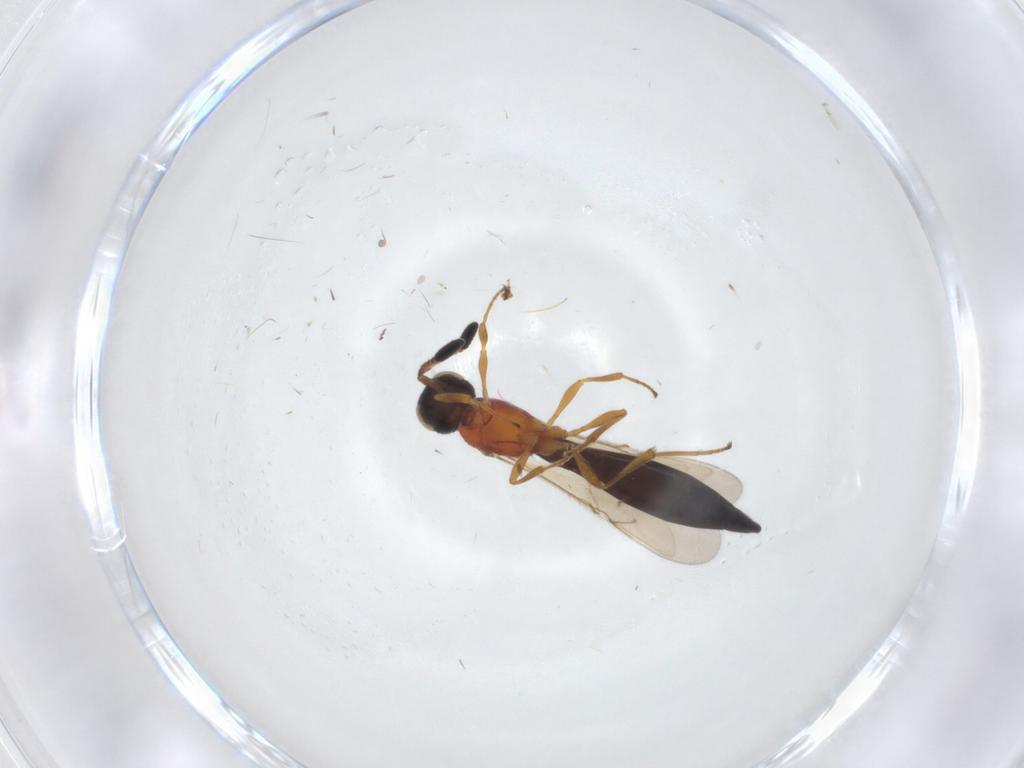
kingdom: Animalia
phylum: Arthropoda
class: Insecta
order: Hymenoptera
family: Scelionidae
